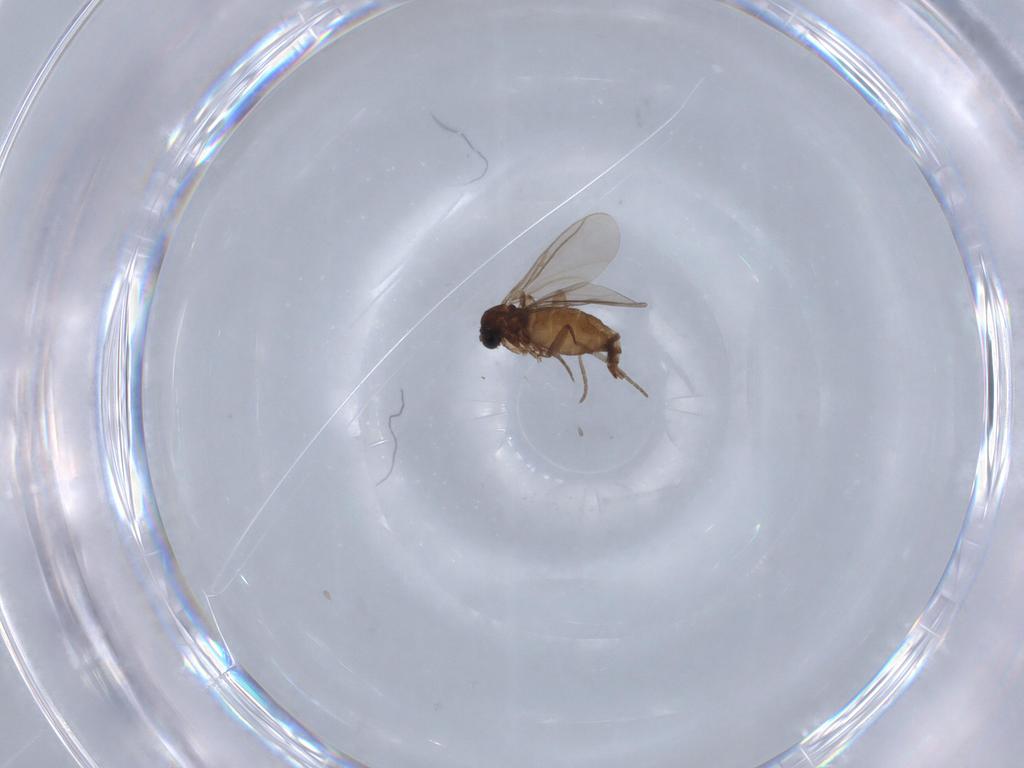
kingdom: Animalia
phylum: Arthropoda
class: Insecta
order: Diptera
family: Sciaridae
